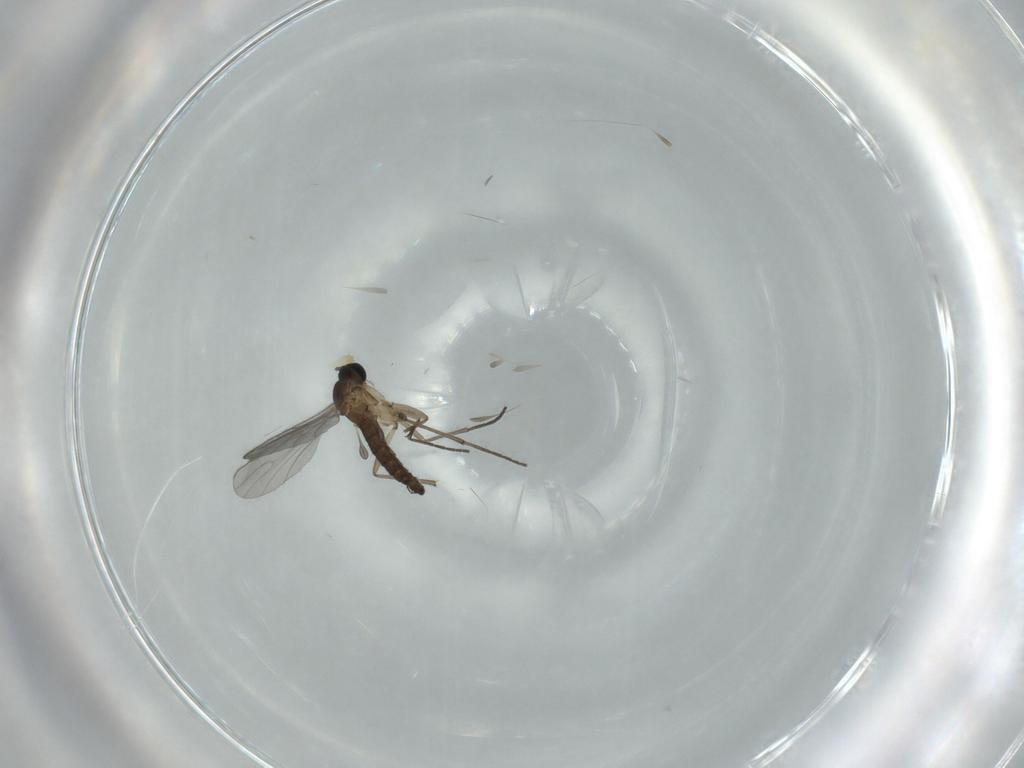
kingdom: Animalia
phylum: Arthropoda
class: Insecta
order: Diptera
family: Sciaridae
